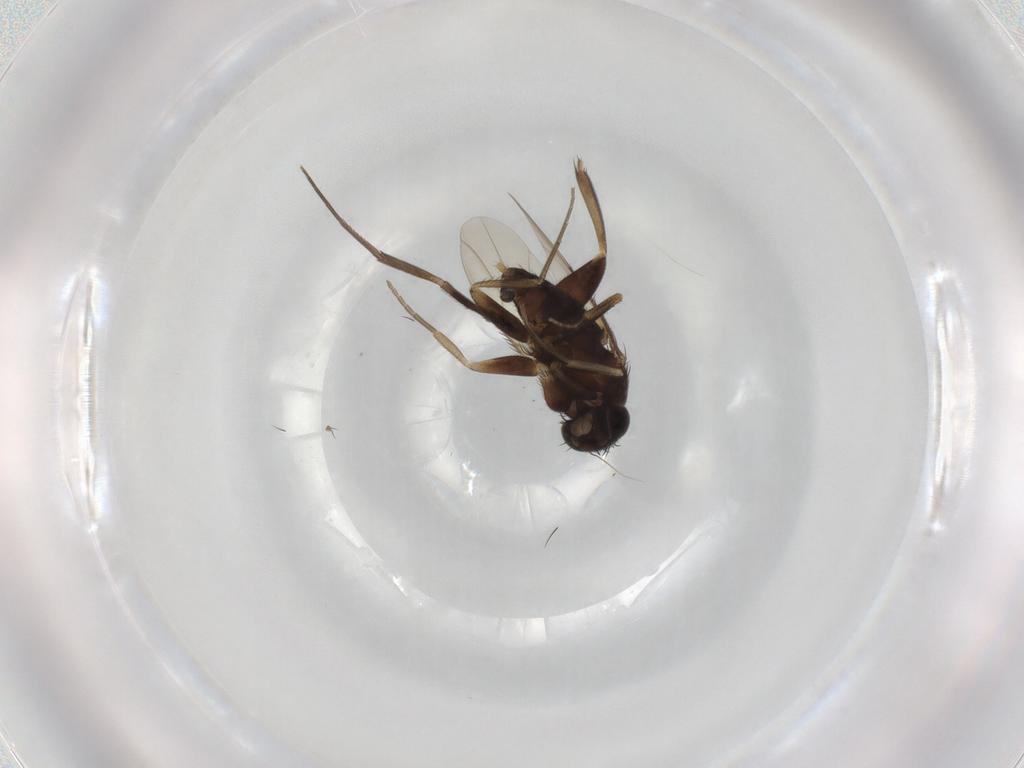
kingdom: Animalia
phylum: Arthropoda
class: Insecta
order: Diptera
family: Phoridae
